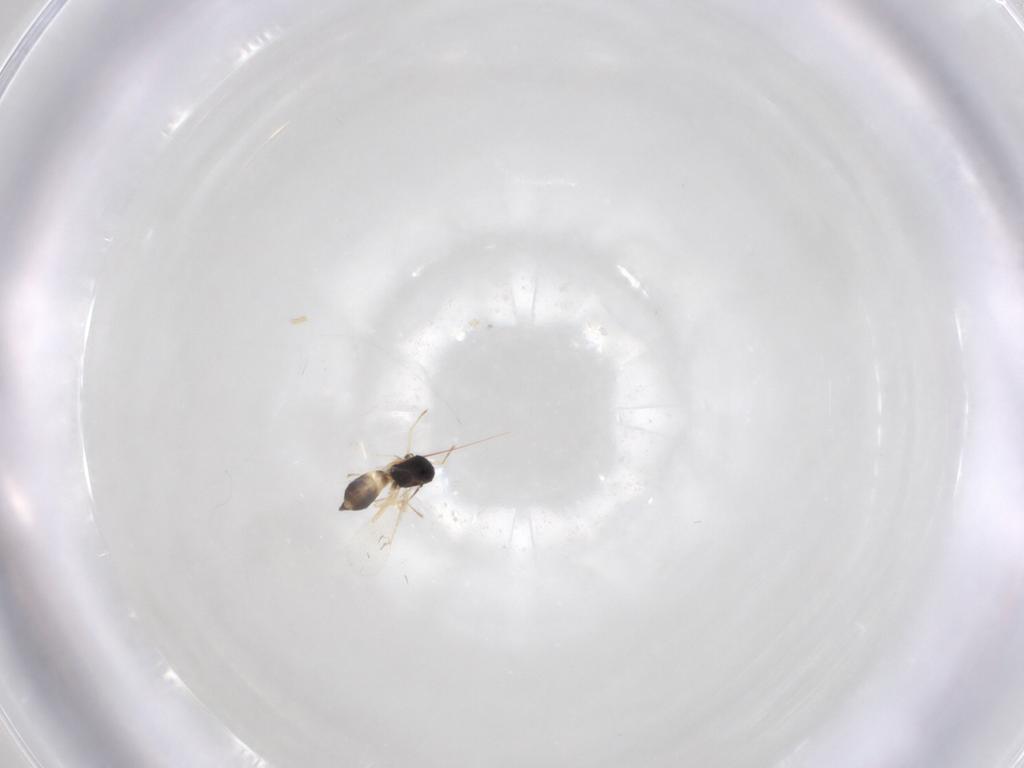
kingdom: Animalia
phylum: Arthropoda
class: Insecta
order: Hymenoptera
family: Eulophidae
